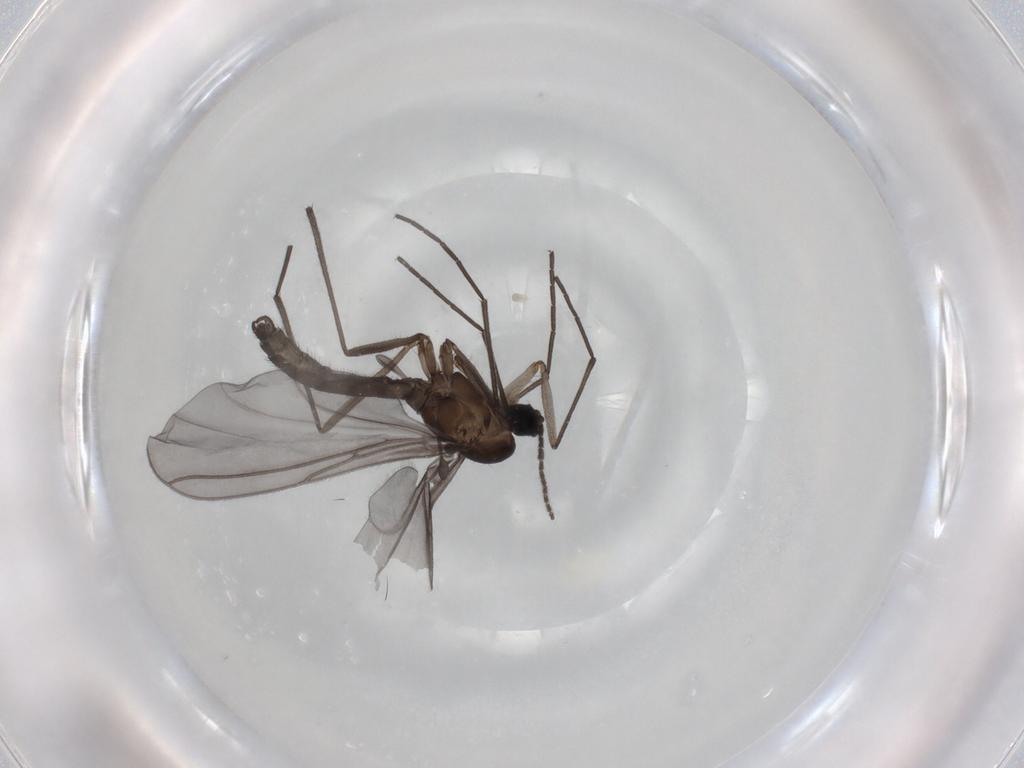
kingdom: Animalia
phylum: Arthropoda
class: Insecta
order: Diptera
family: Sciaridae
